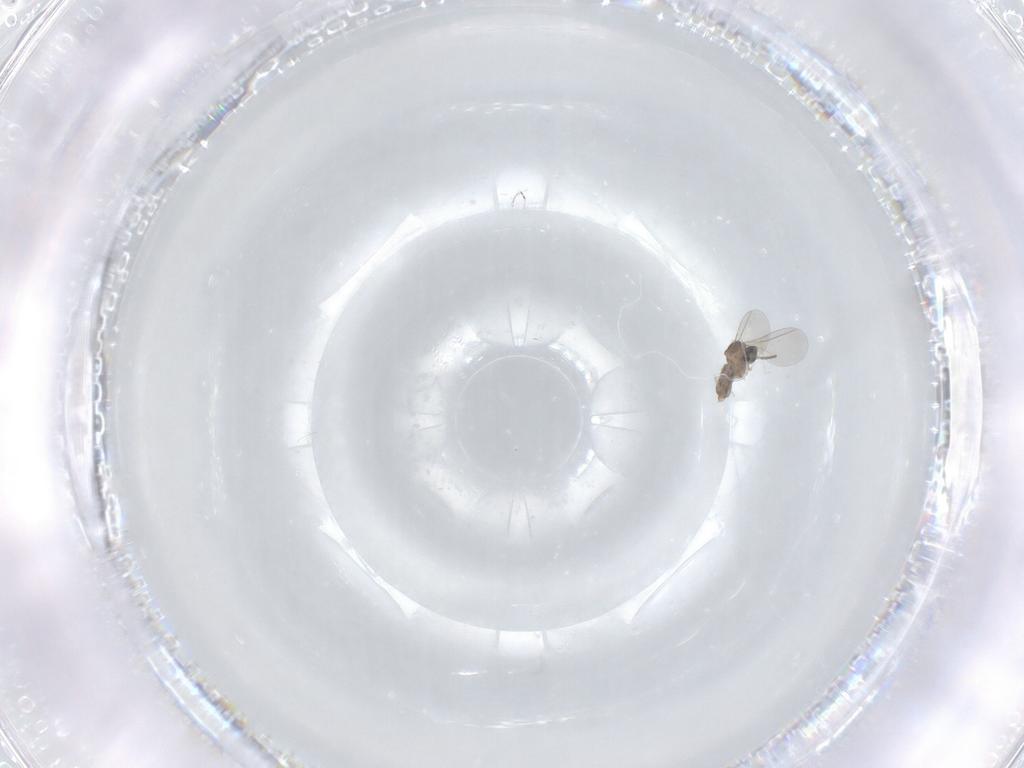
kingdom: Animalia
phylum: Arthropoda
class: Insecta
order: Diptera
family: Cecidomyiidae
